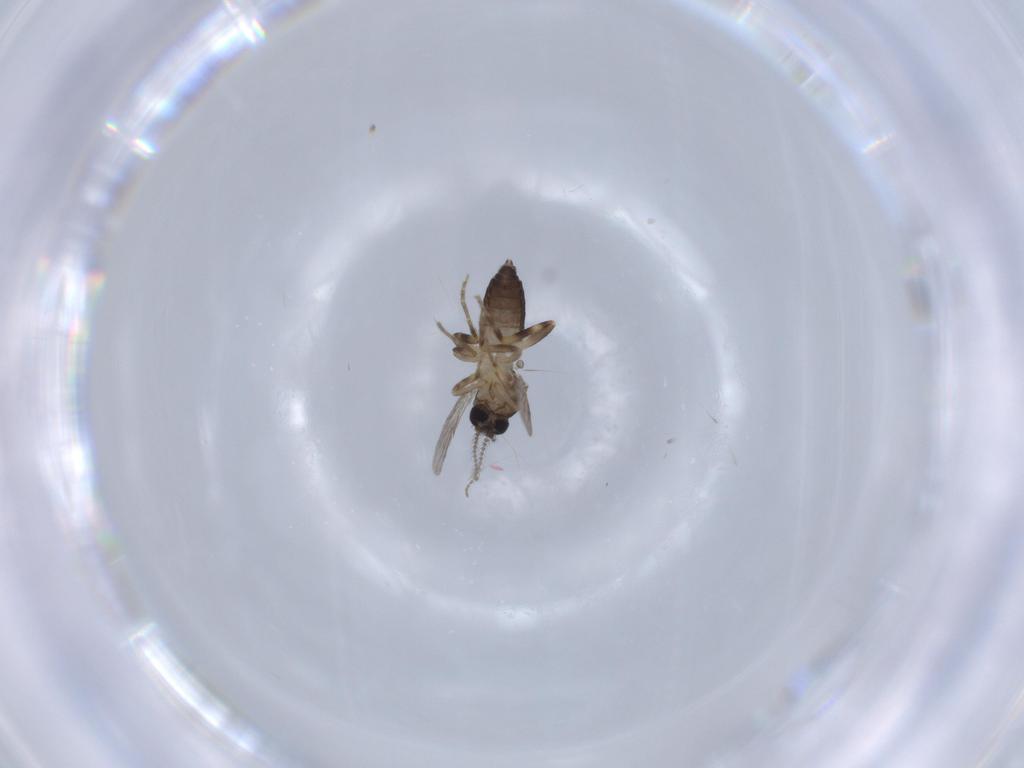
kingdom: Animalia
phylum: Arthropoda
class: Insecta
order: Diptera
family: Ceratopogonidae
